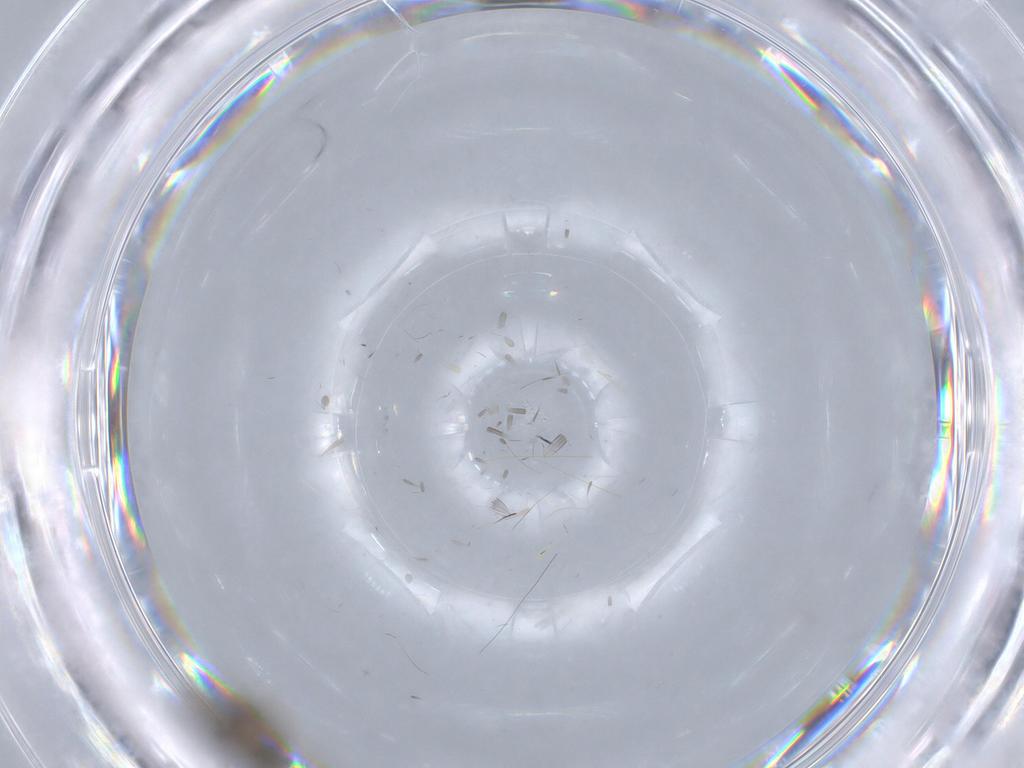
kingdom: Animalia
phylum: Arthropoda
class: Insecta
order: Diptera
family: Chironomidae
